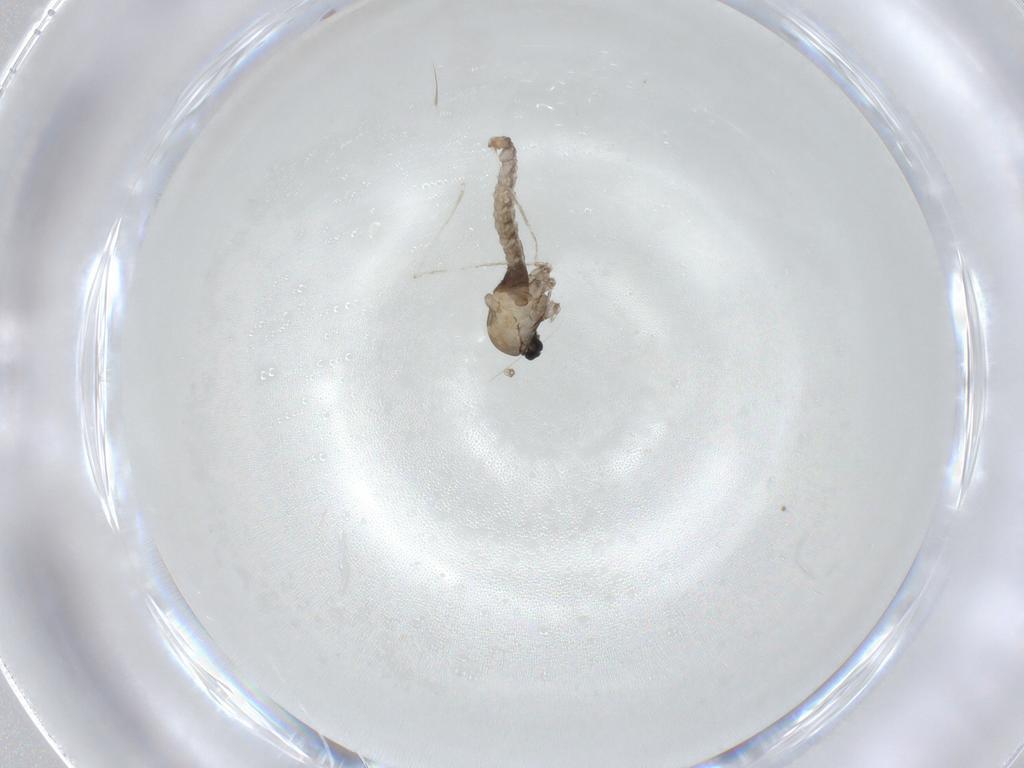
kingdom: Animalia
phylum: Arthropoda
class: Insecta
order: Diptera
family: Cecidomyiidae
